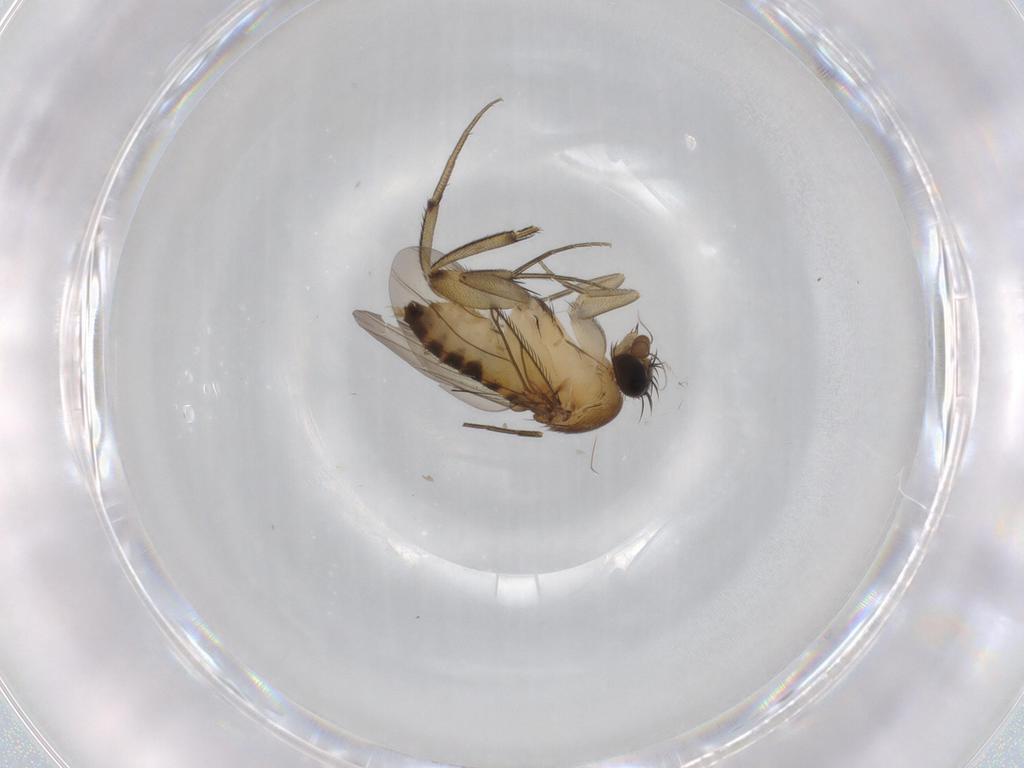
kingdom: Animalia
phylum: Arthropoda
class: Insecta
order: Diptera
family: Phoridae
